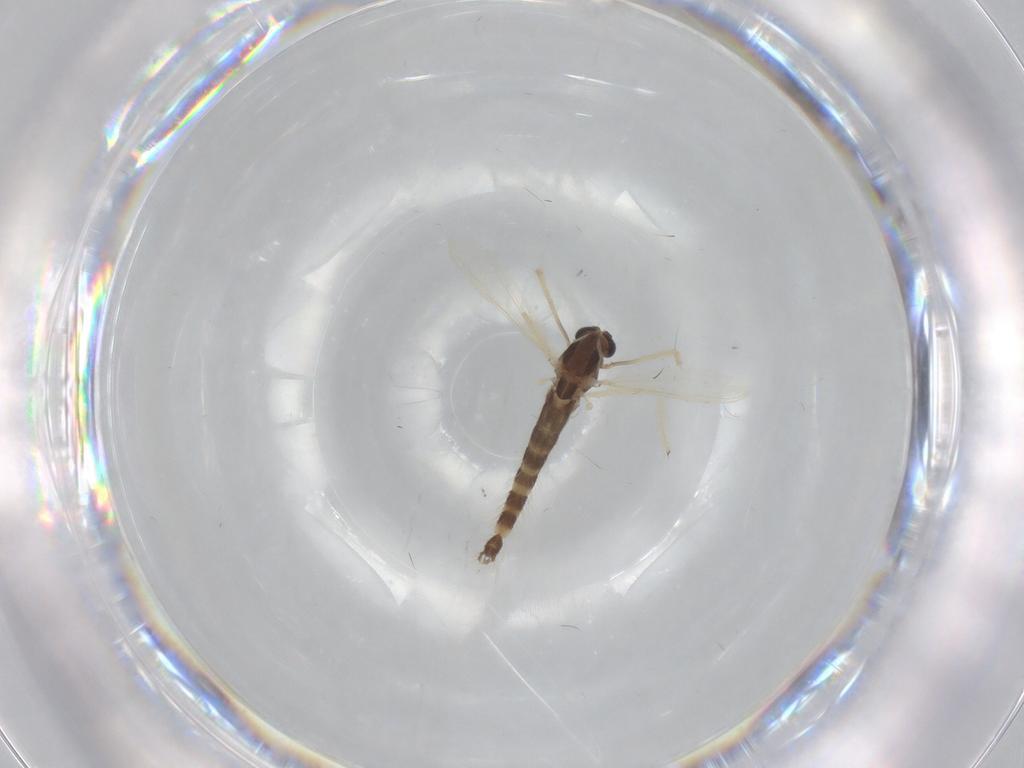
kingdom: Animalia
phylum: Arthropoda
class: Insecta
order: Diptera
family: Chironomidae
